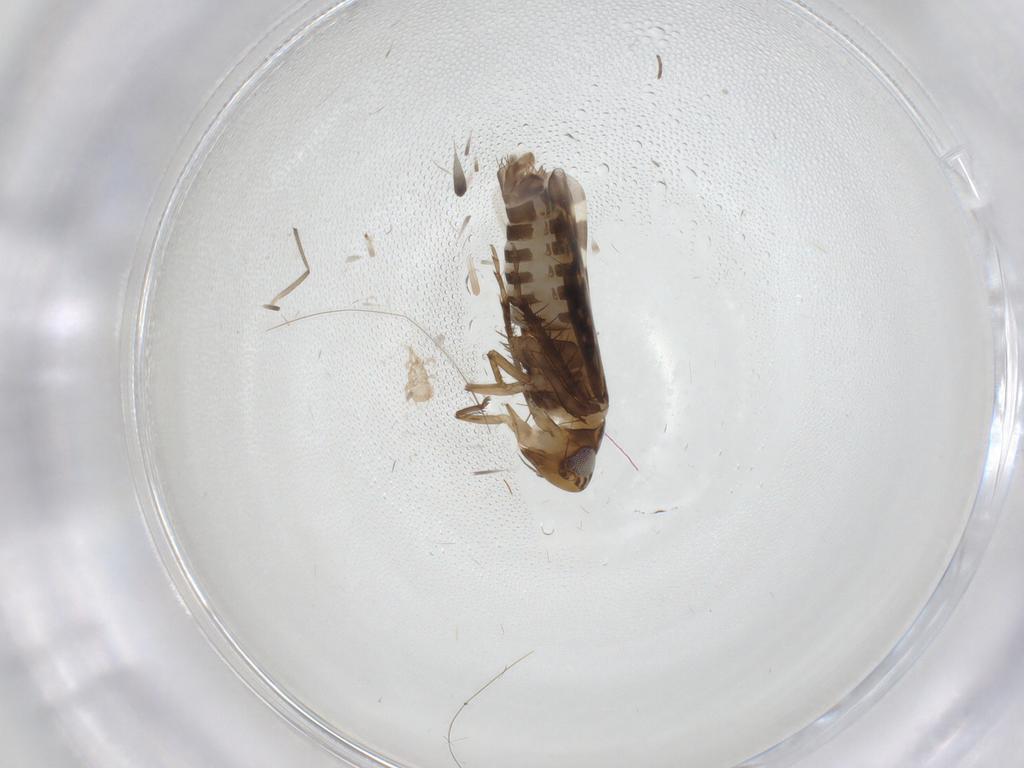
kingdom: Animalia
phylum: Arthropoda
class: Insecta
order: Hemiptera
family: Cicadellidae
